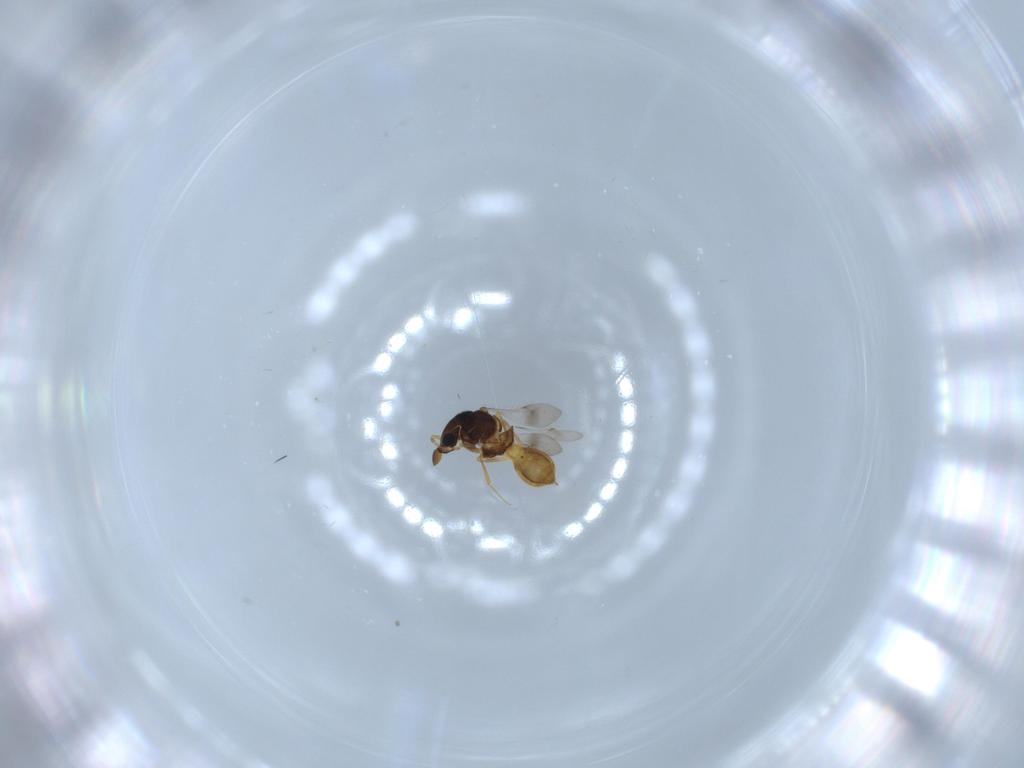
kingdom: Animalia
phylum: Arthropoda
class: Insecta
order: Hymenoptera
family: Scelionidae
